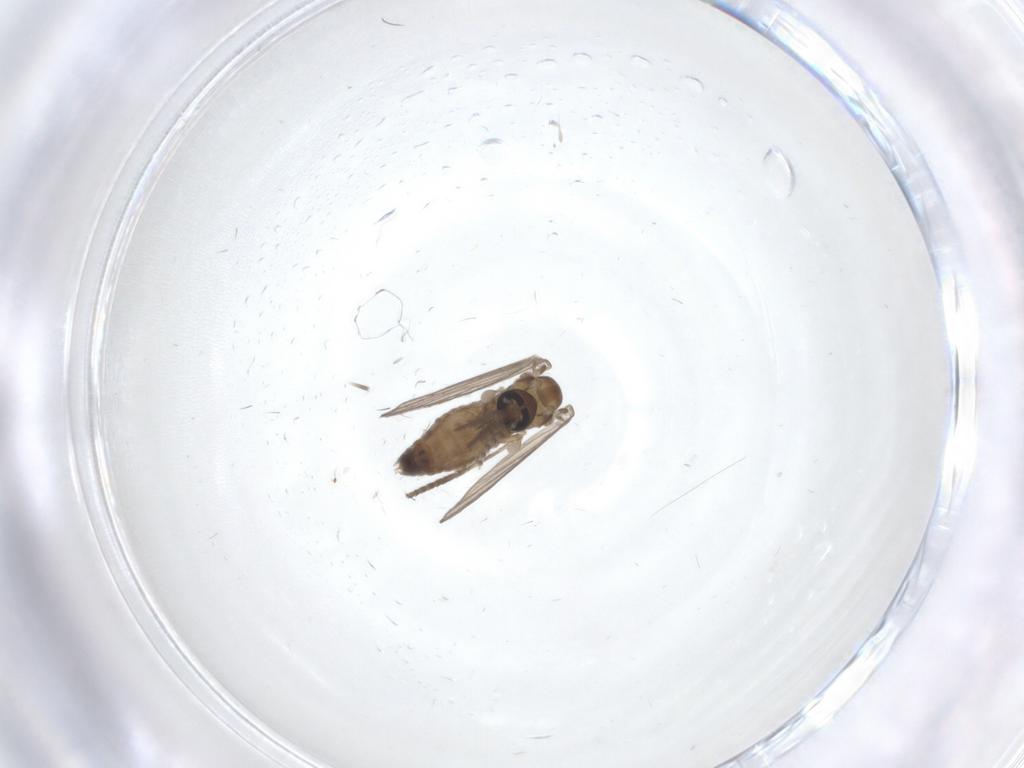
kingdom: Animalia
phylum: Arthropoda
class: Insecta
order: Diptera
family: Psychodidae
